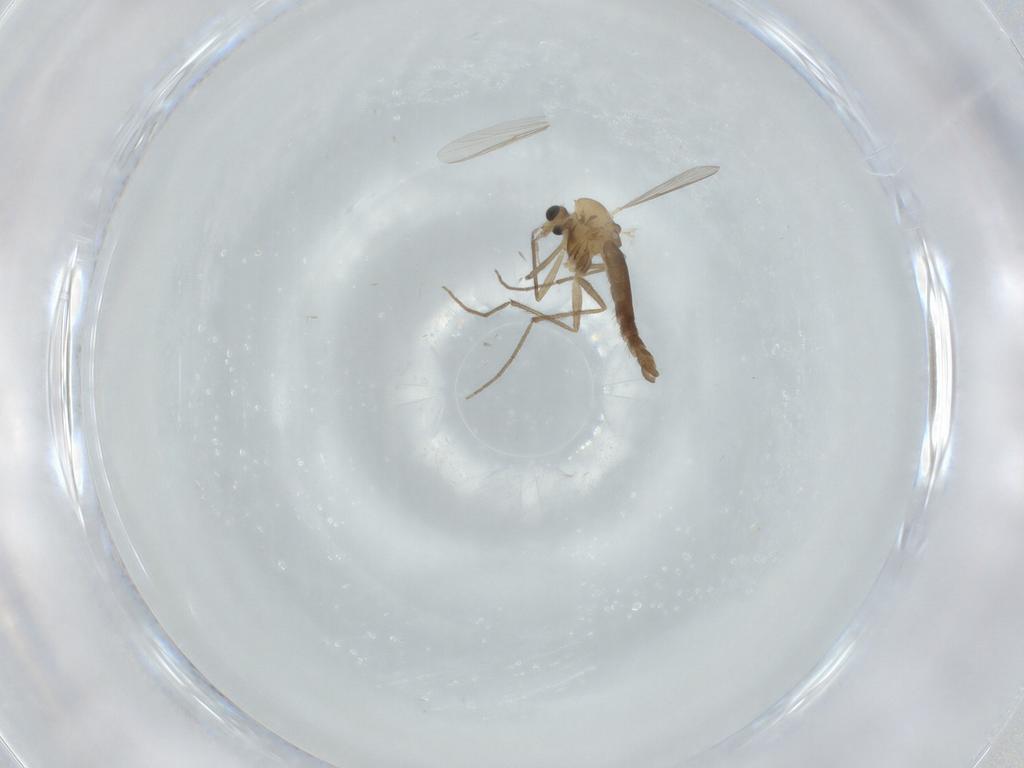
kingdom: Animalia
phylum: Arthropoda
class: Insecta
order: Diptera
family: Chironomidae
